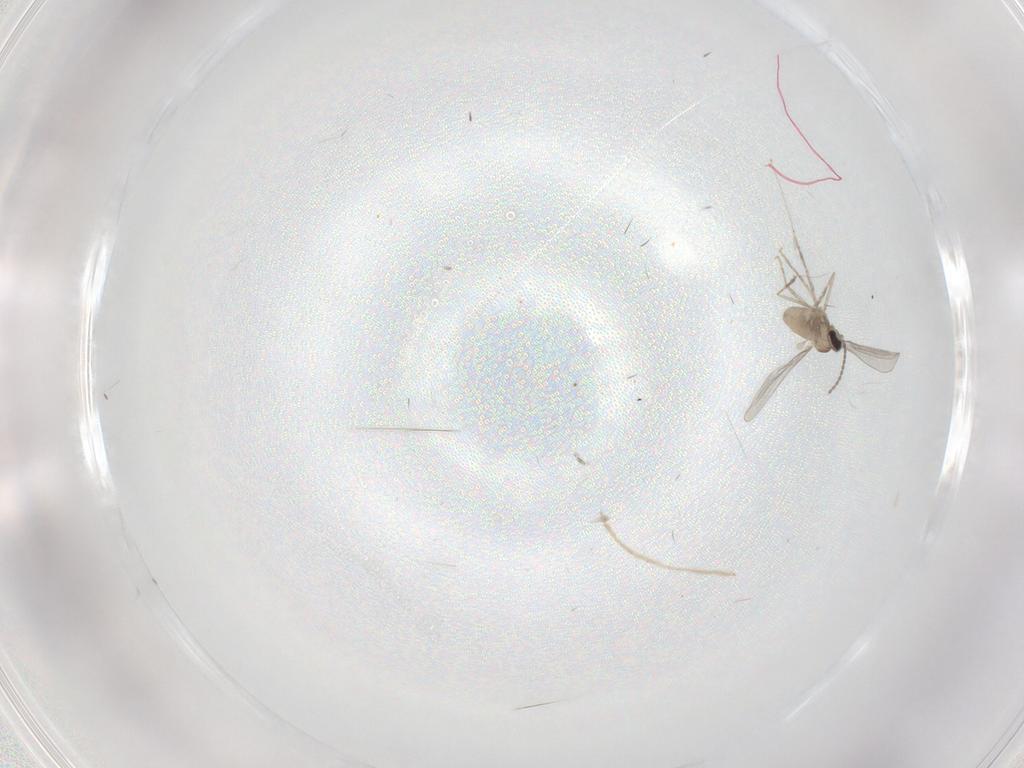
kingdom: Animalia
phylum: Arthropoda
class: Insecta
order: Diptera
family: Cecidomyiidae
